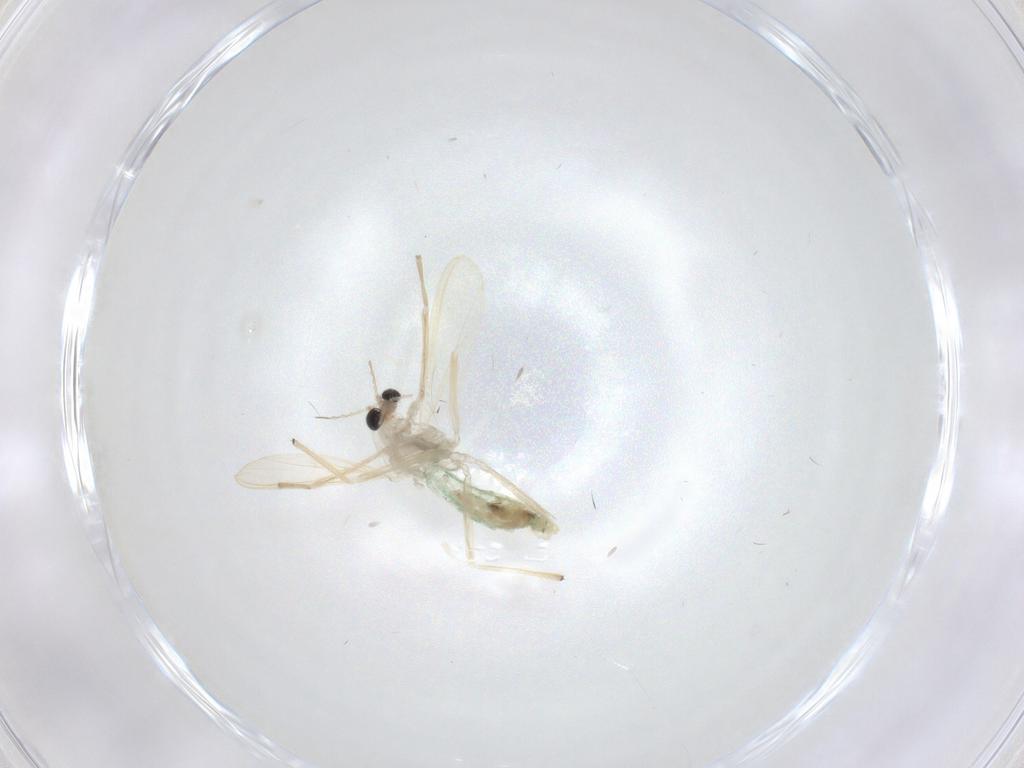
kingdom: Animalia
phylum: Arthropoda
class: Insecta
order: Diptera
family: Chironomidae
